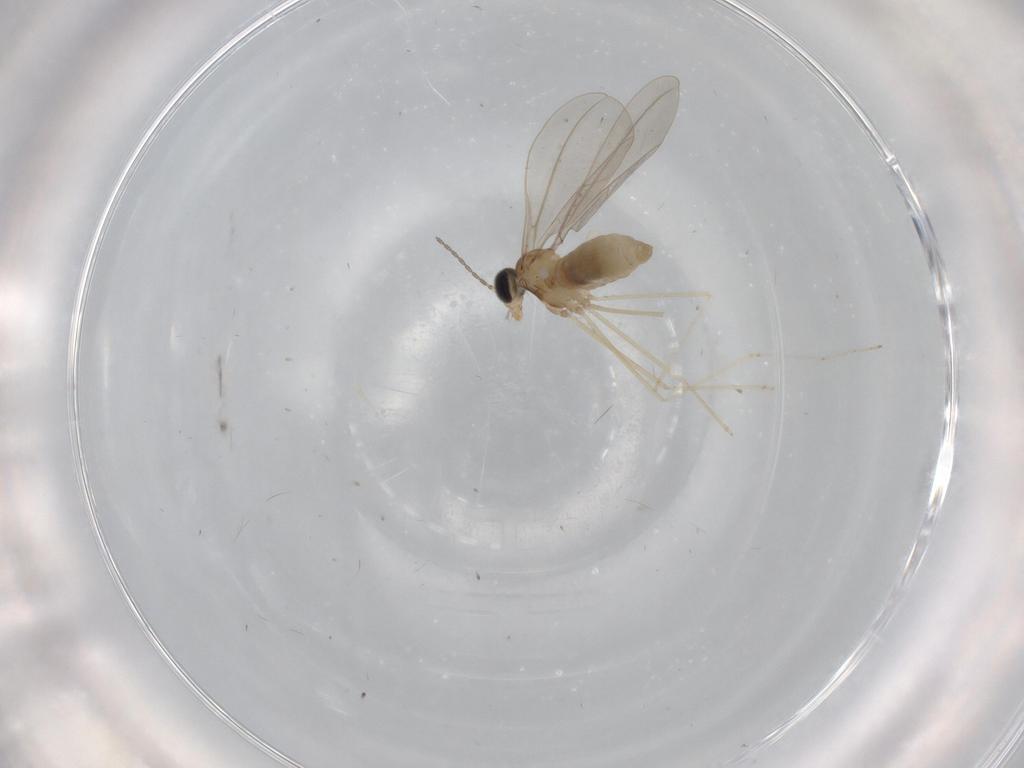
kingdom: Animalia
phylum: Arthropoda
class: Insecta
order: Diptera
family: Cecidomyiidae
